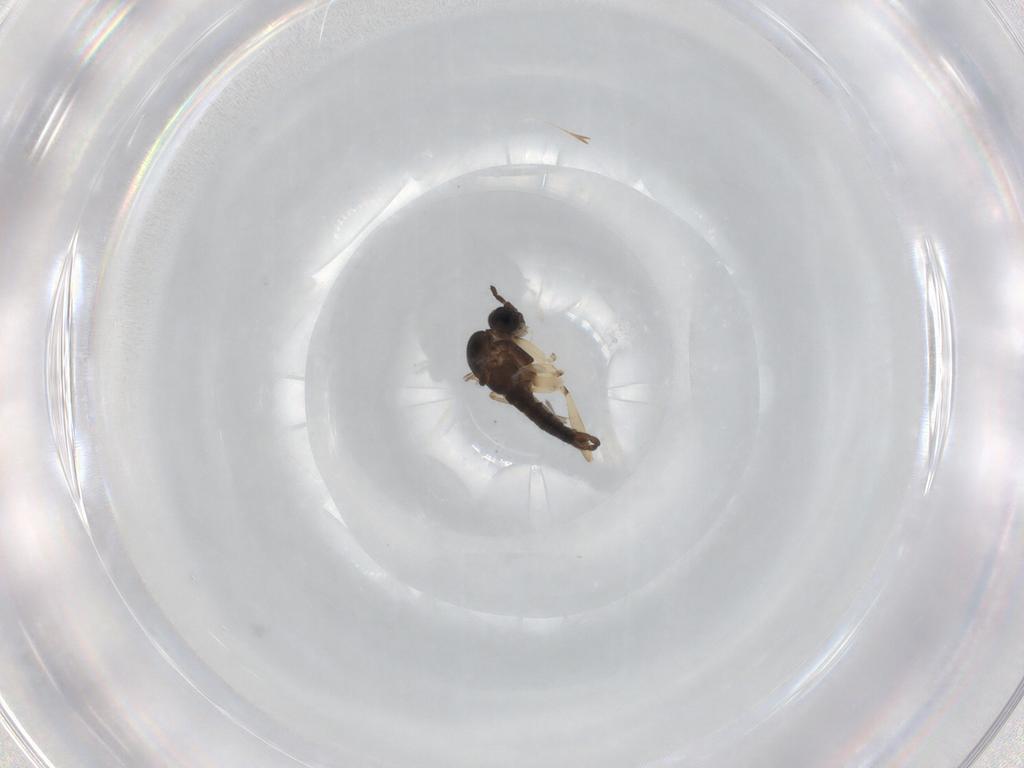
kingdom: Animalia
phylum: Arthropoda
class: Insecta
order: Diptera
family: Sciaridae
